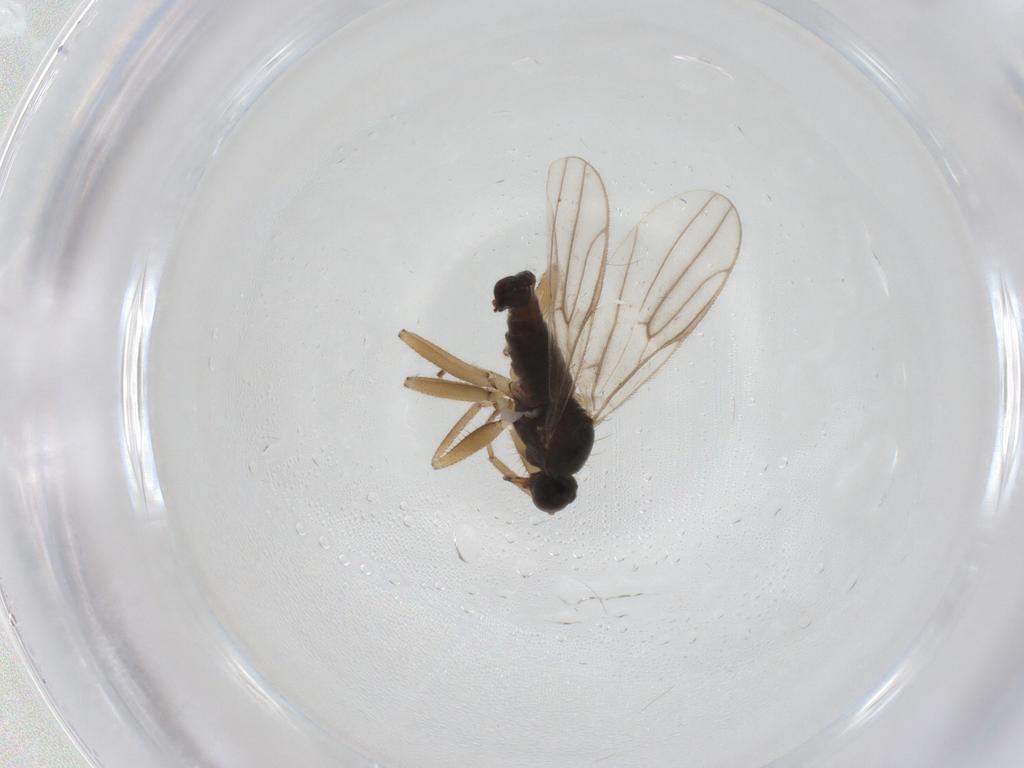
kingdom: Animalia
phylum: Arthropoda
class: Insecta
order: Diptera
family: Hybotidae
